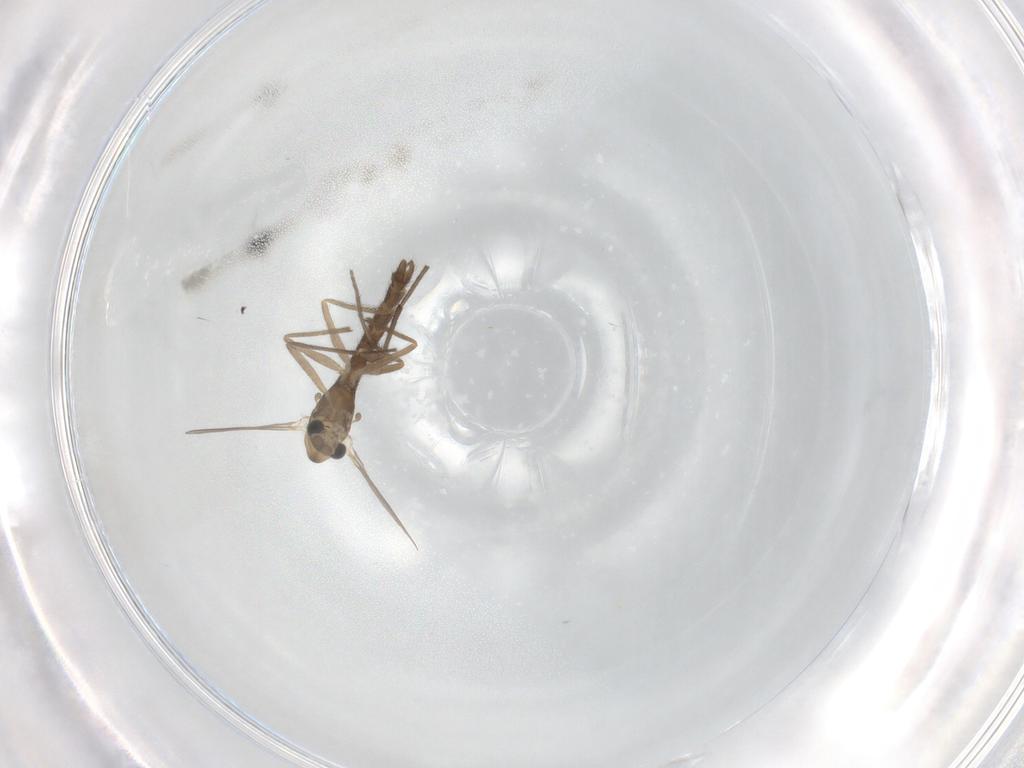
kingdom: Animalia
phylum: Arthropoda
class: Insecta
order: Diptera
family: Chironomidae
